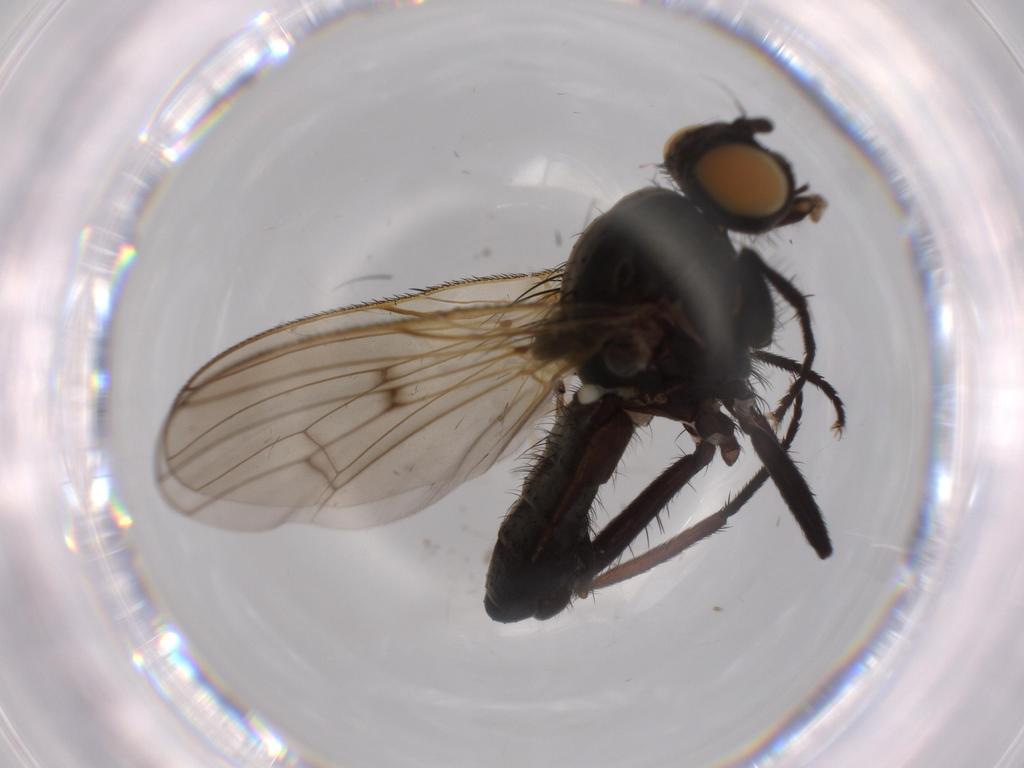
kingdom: Animalia
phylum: Arthropoda
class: Insecta
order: Diptera
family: Anthomyiidae
